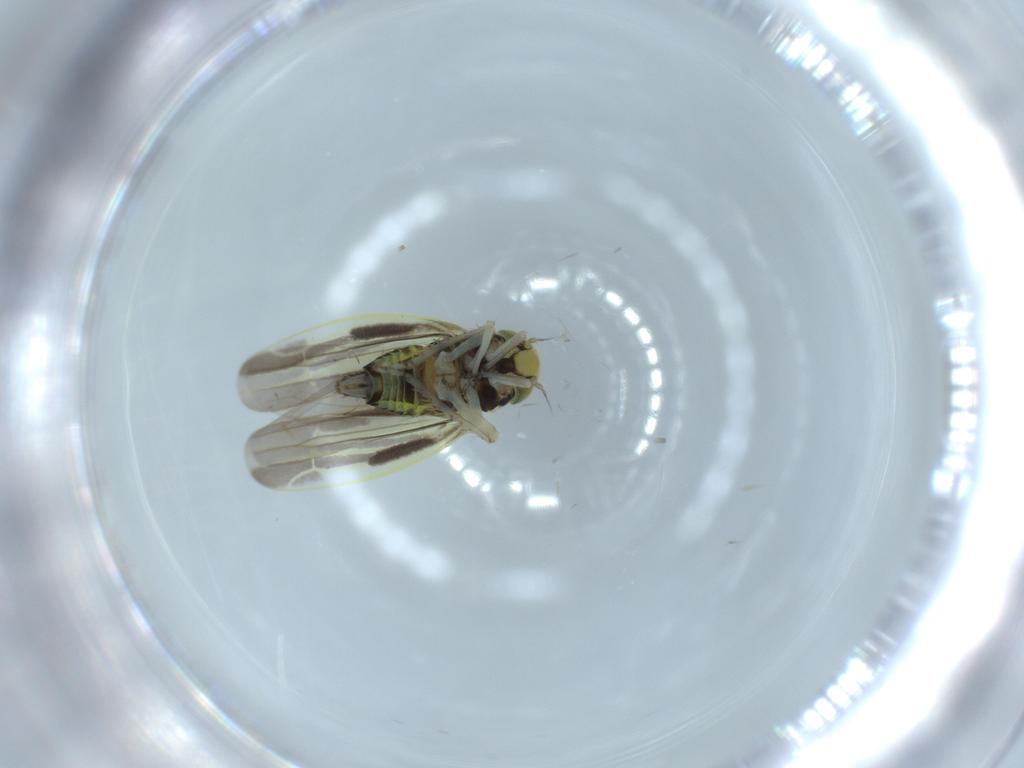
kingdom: Animalia
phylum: Arthropoda
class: Insecta
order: Hemiptera
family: Cicadellidae
